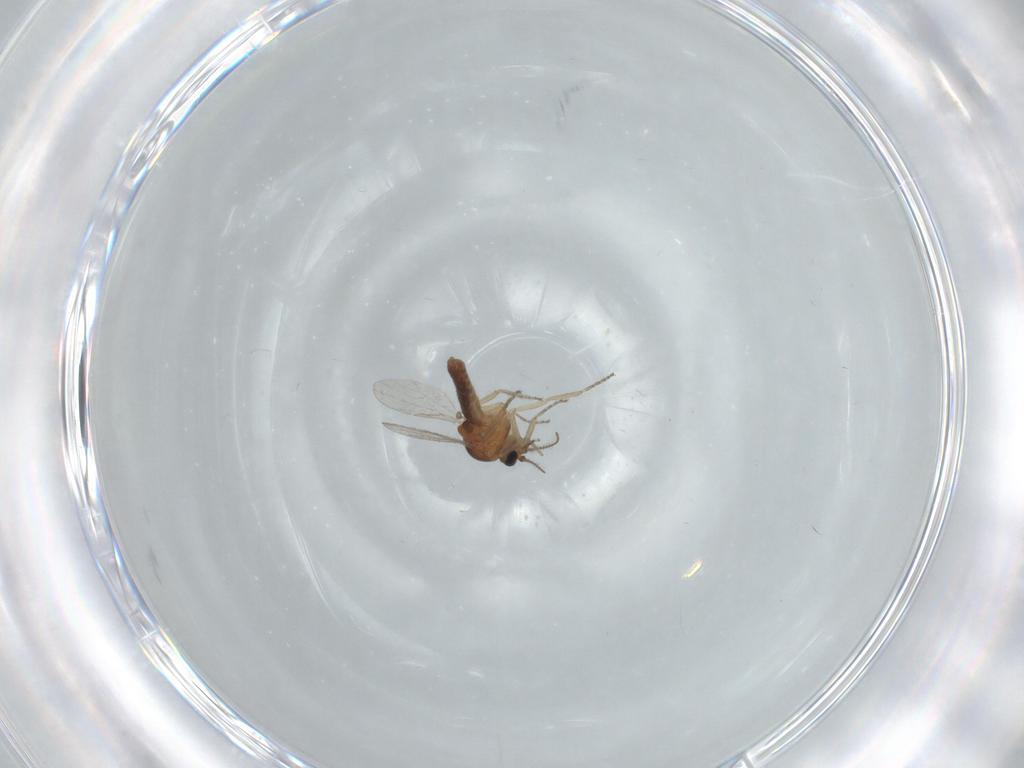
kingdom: Animalia
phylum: Arthropoda
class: Insecta
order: Diptera
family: Ceratopogonidae
